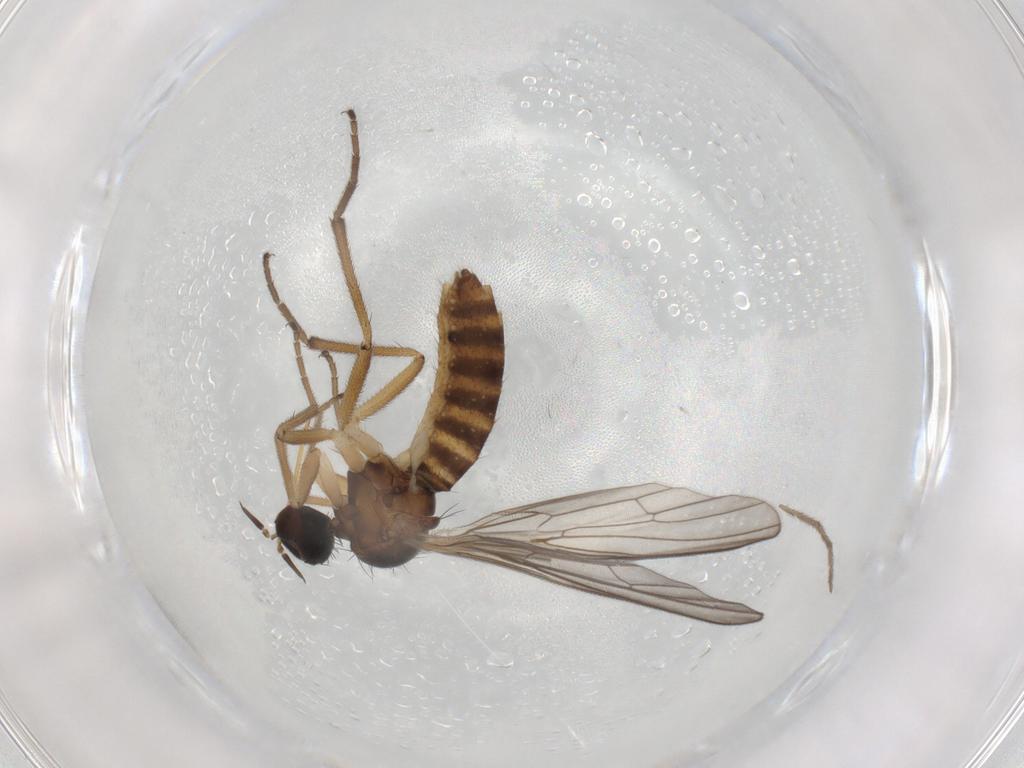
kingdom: Animalia
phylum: Arthropoda
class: Insecta
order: Diptera
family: Empididae
